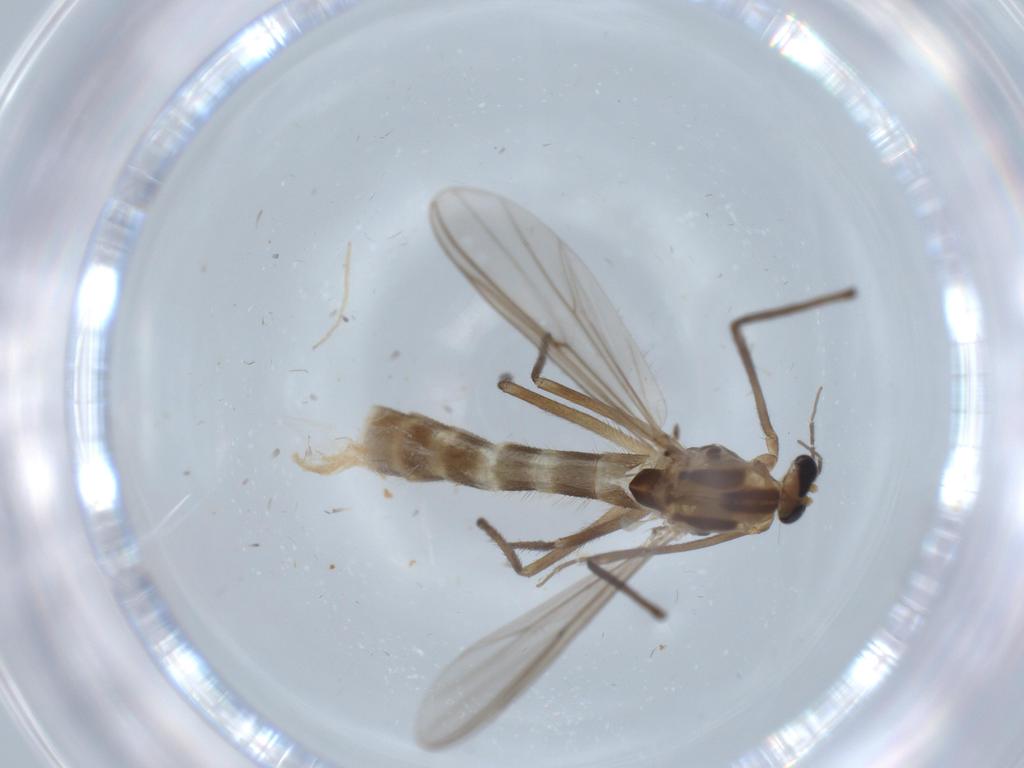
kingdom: Animalia
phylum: Arthropoda
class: Insecta
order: Diptera
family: Chironomidae
